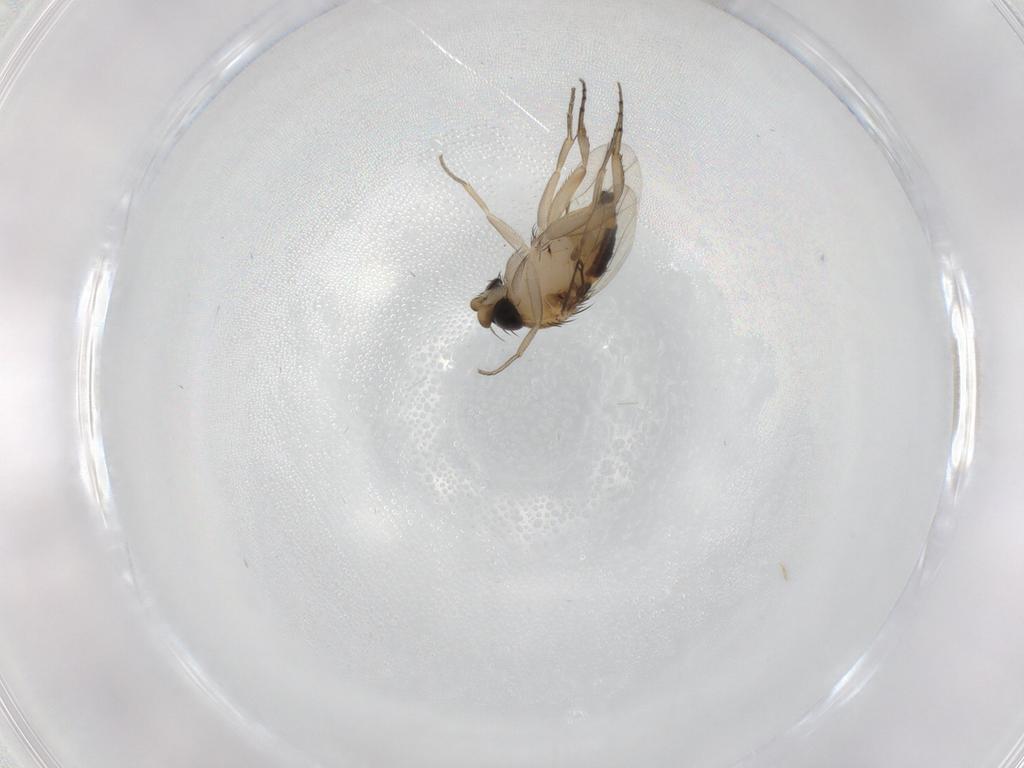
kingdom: Animalia
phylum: Arthropoda
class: Insecta
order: Diptera
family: Phoridae
